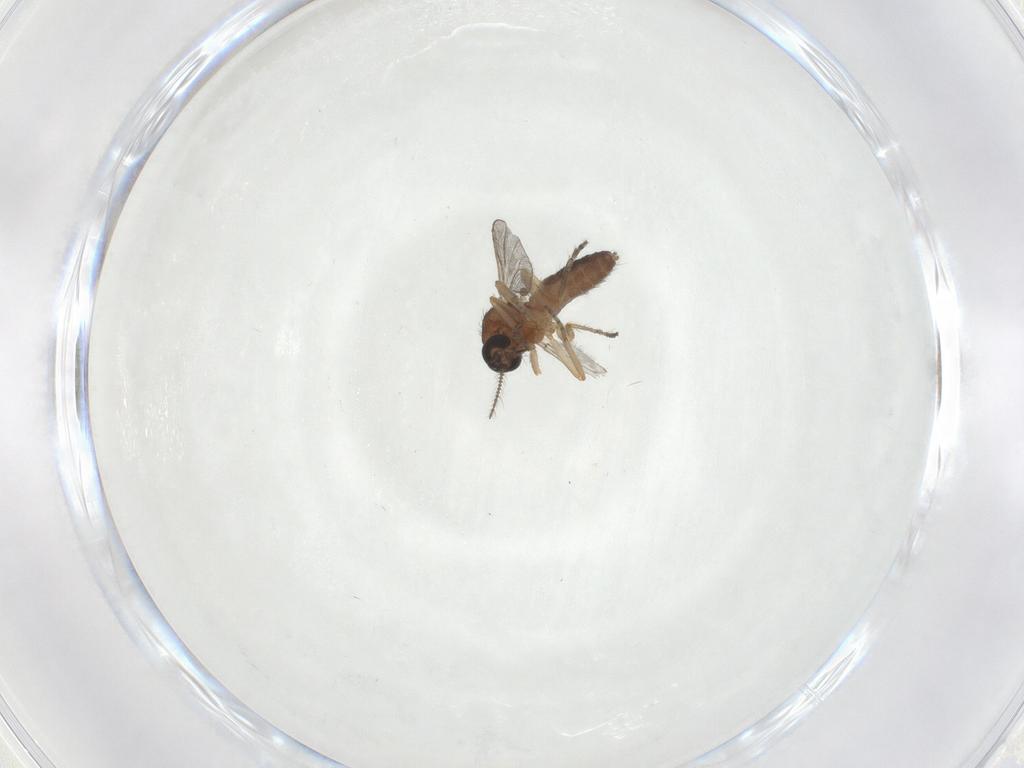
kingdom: Animalia
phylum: Arthropoda
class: Insecta
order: Diptera
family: Ceratopogonidae
